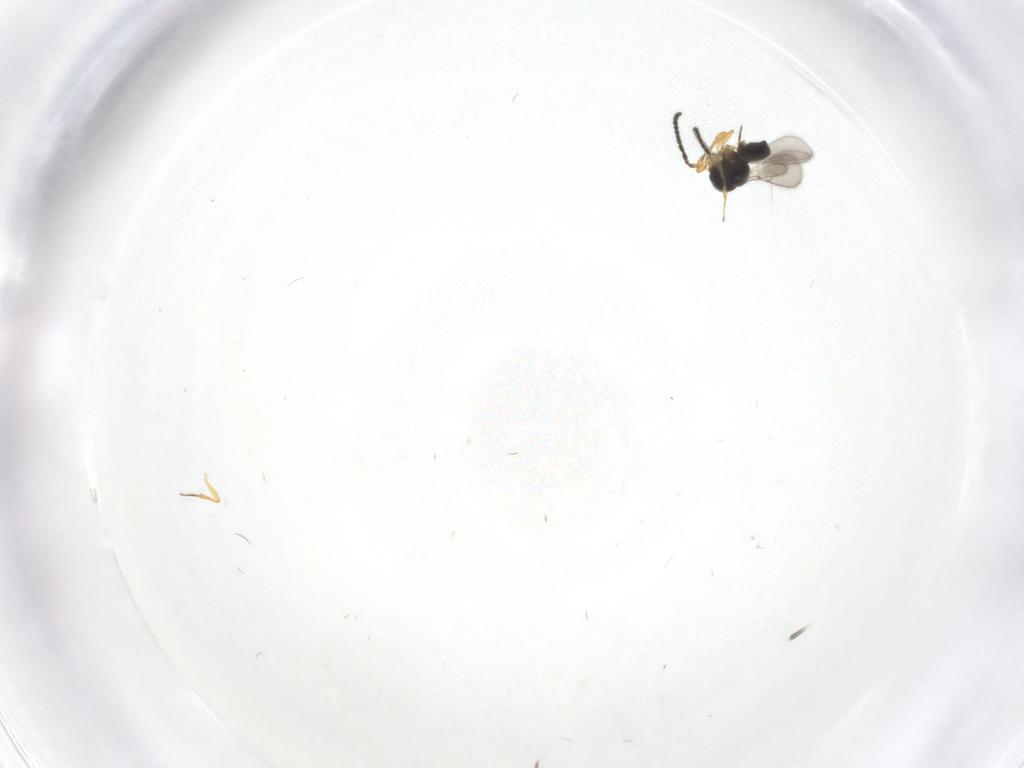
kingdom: Animalia
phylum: Arthropoda
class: Insecta
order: Hymenoptera
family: Scelionidae
